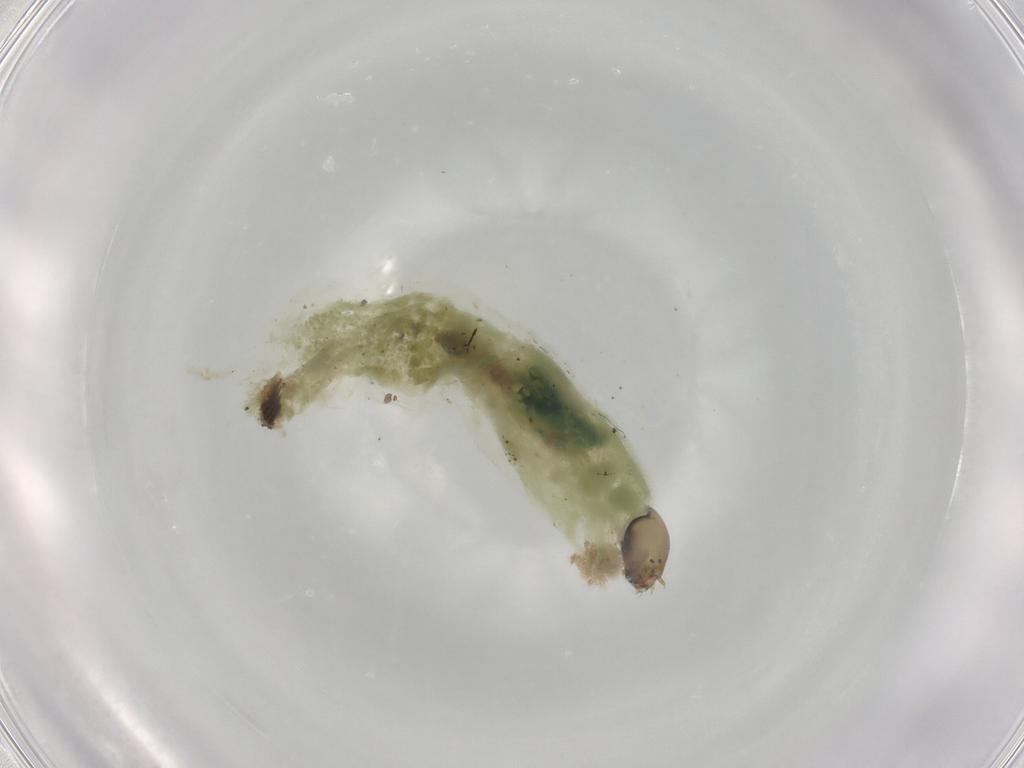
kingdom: Animalia
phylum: Arthropoda
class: Insecta
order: Diptera
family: Chironomidae
